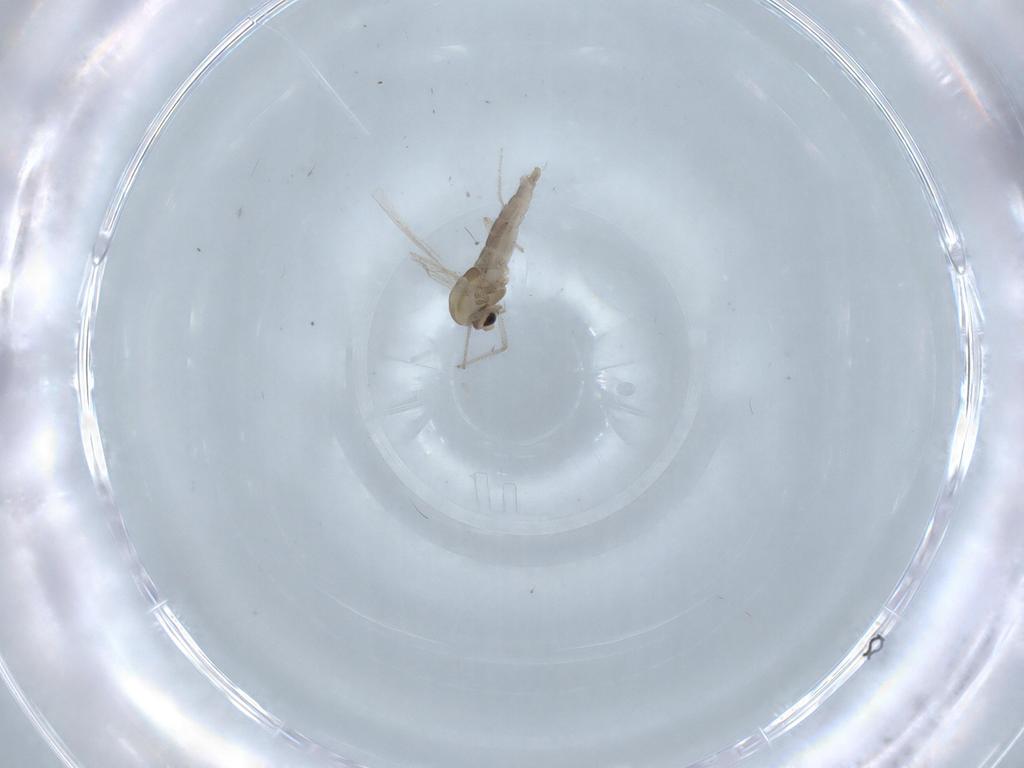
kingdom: Animalia
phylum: Arthropoda
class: Insecta
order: Diptera
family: Chironomidae
